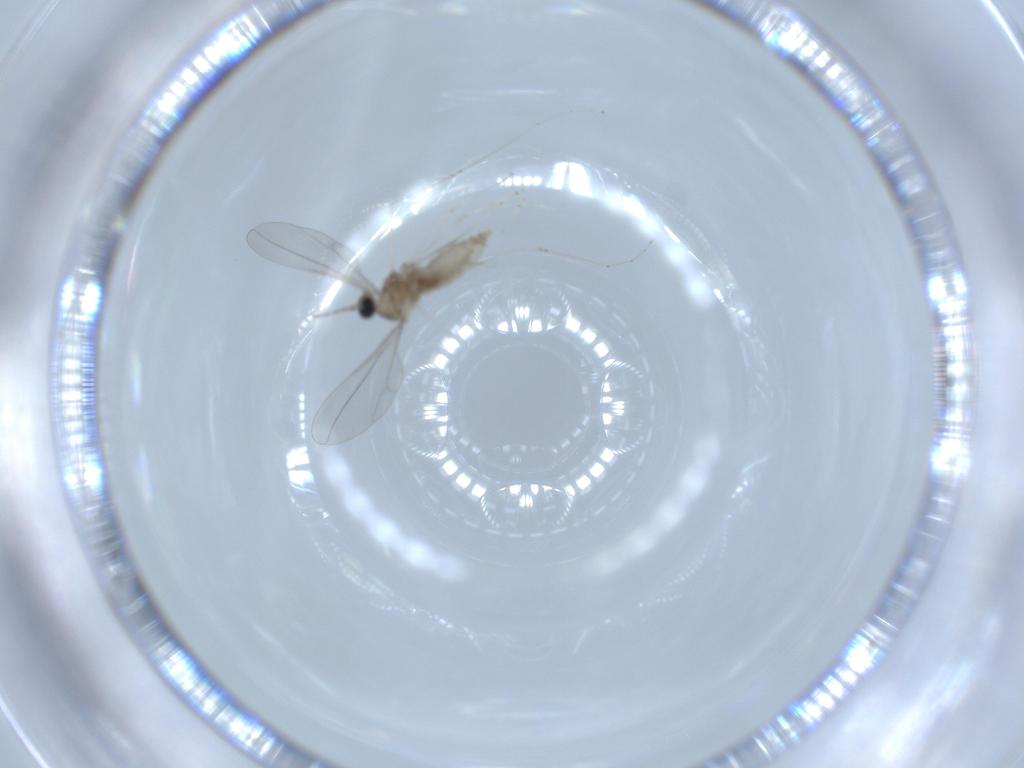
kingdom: Animalia
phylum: Arthropoda
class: Insecta
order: Diptera
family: Cecidomyiidae
